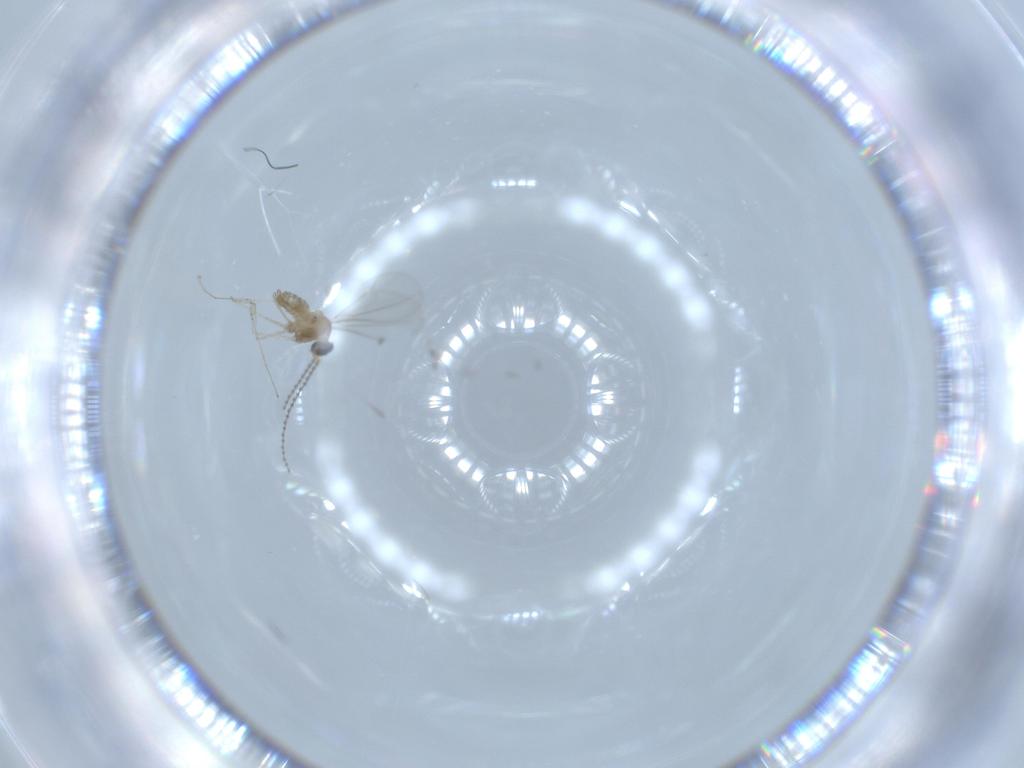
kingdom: Animalia
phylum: Arthropoda
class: Insecta
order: Diptera
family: Cecidomyiidae
